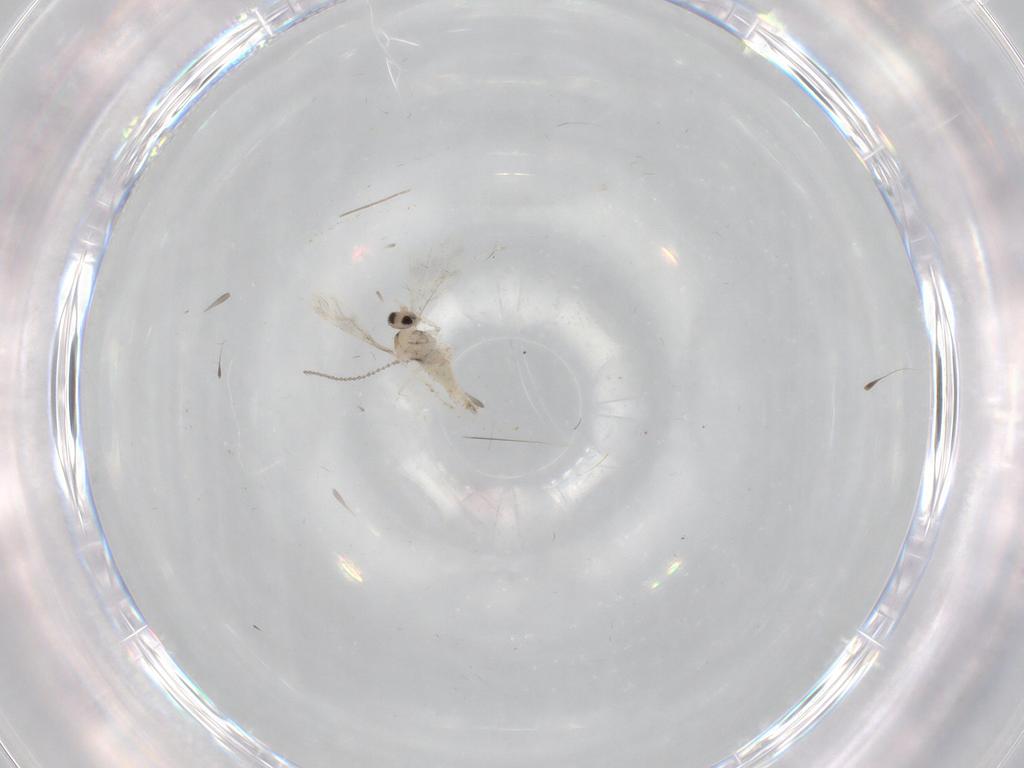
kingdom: Animalia
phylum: Arthropoda
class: Insecta
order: Diptera
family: Cecidomyiidae
